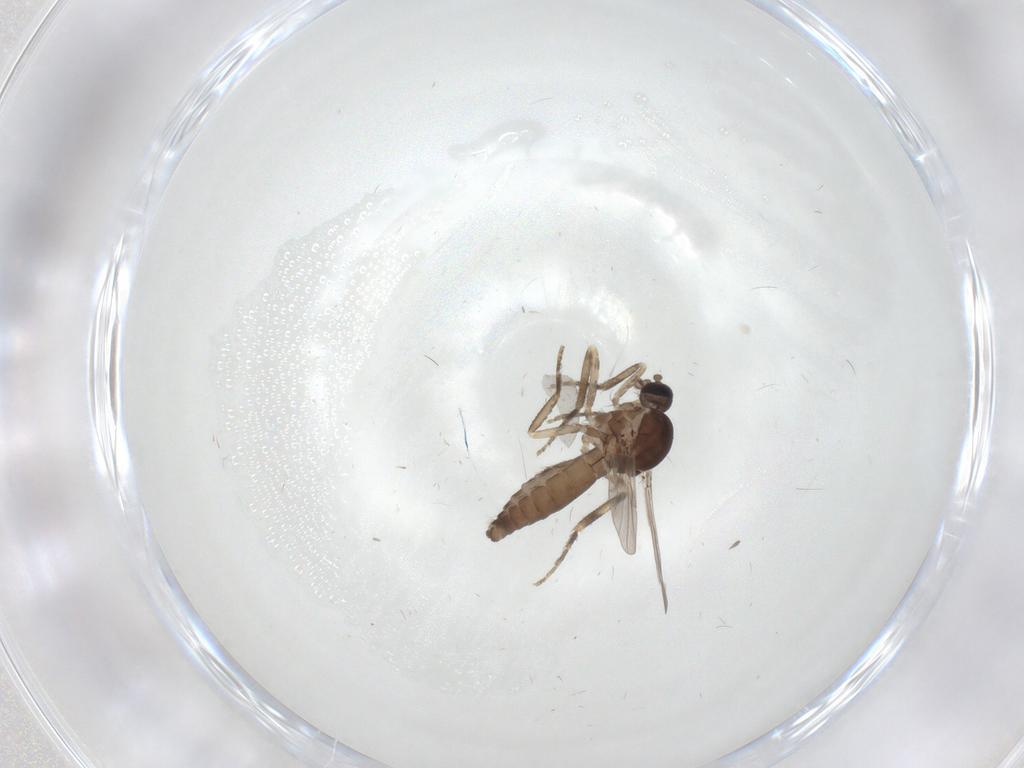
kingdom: Animalia
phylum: Arthropoda
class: Insecta
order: Diptera
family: Ceratopogonidae
